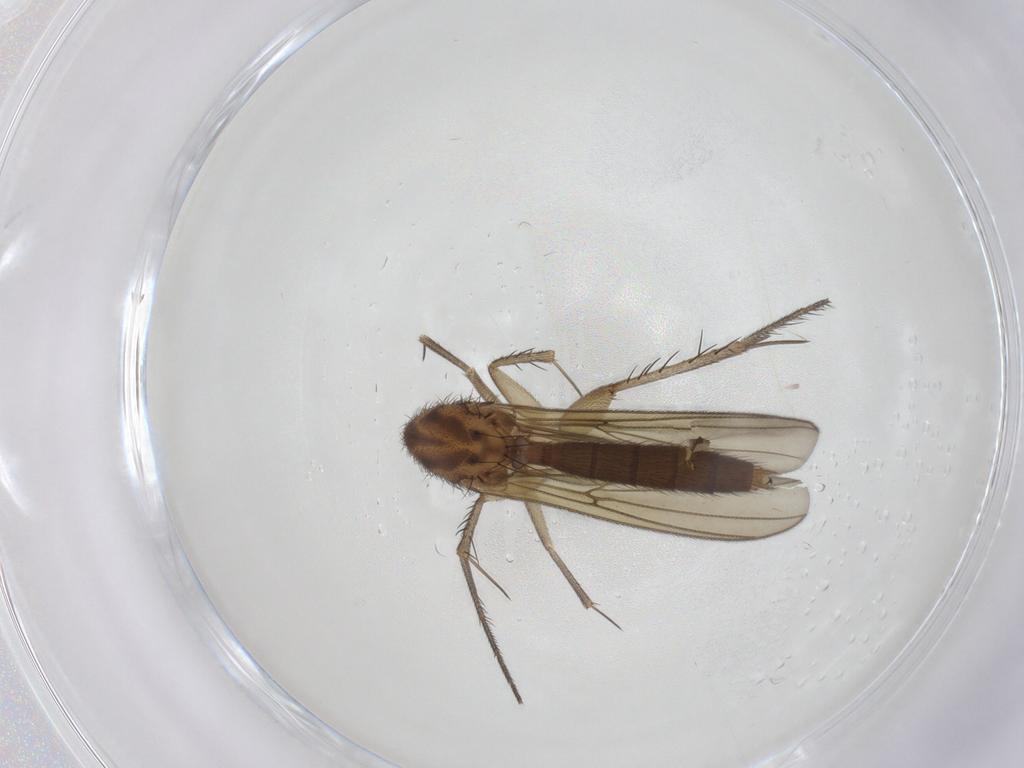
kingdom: Animalia
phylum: Arthropoda
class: Insecta
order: Diptera
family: Mycetophilidae
